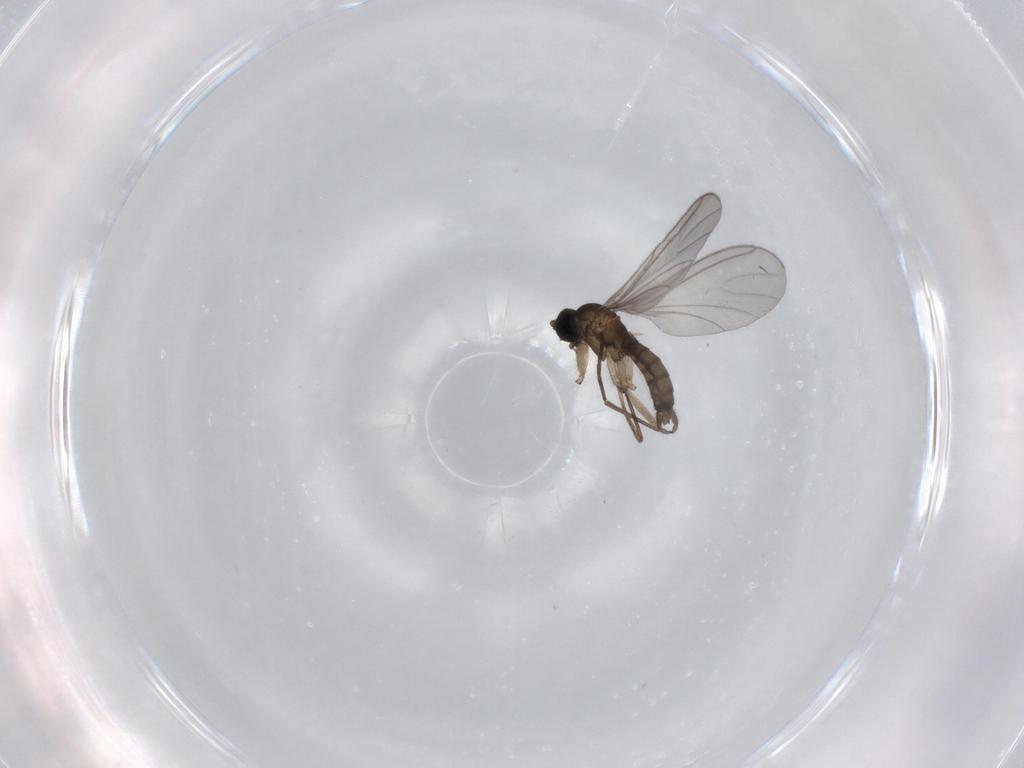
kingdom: Animalia
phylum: Arthropoda
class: Insecta
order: Diptera
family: Sciaridae
